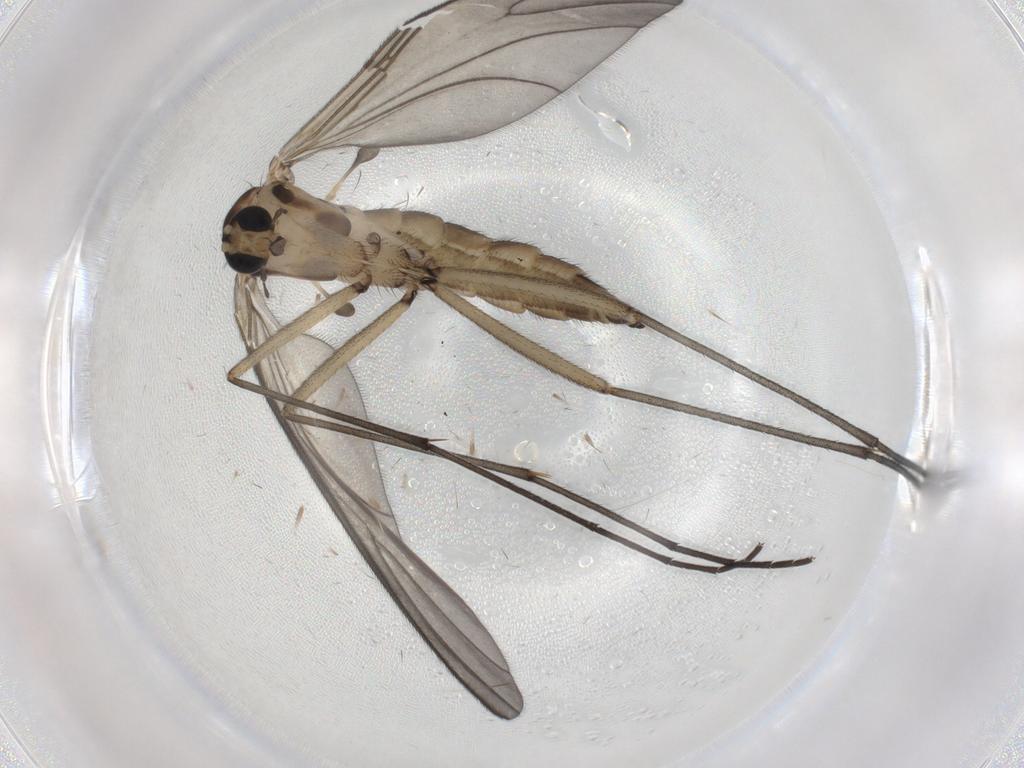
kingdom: Animalia
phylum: Arthropoda
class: Insecta
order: Diptera
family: Sciaridae
